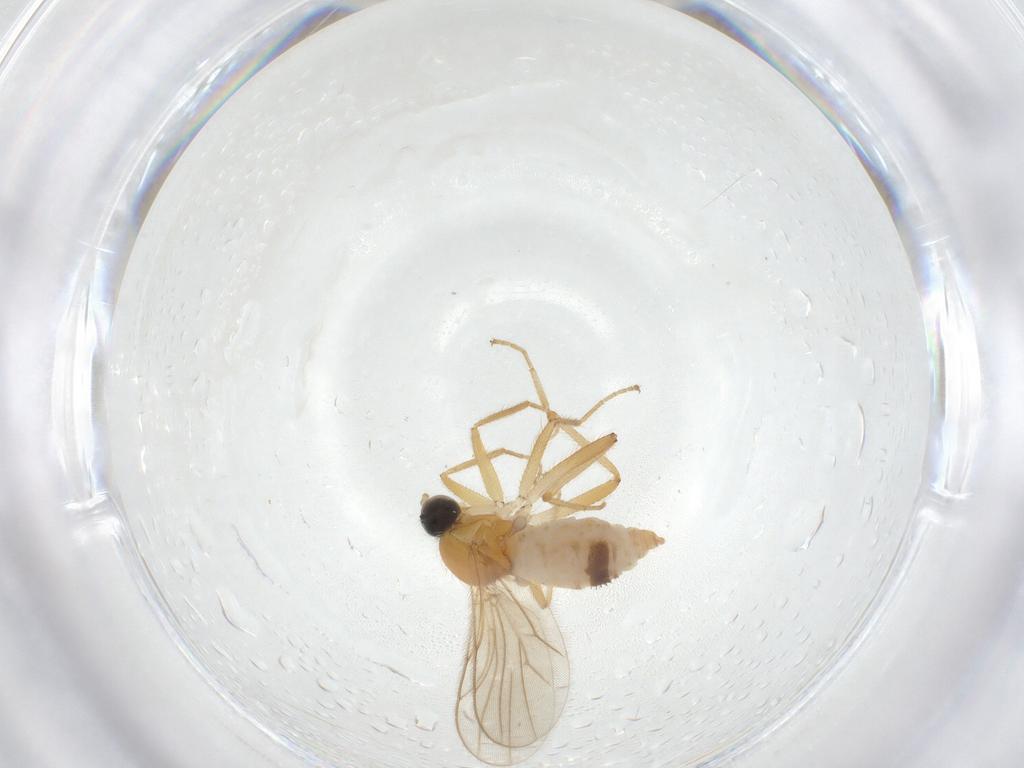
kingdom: Animalia
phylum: Arthropoda
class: Insecta
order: Diptera
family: Hybotidae
